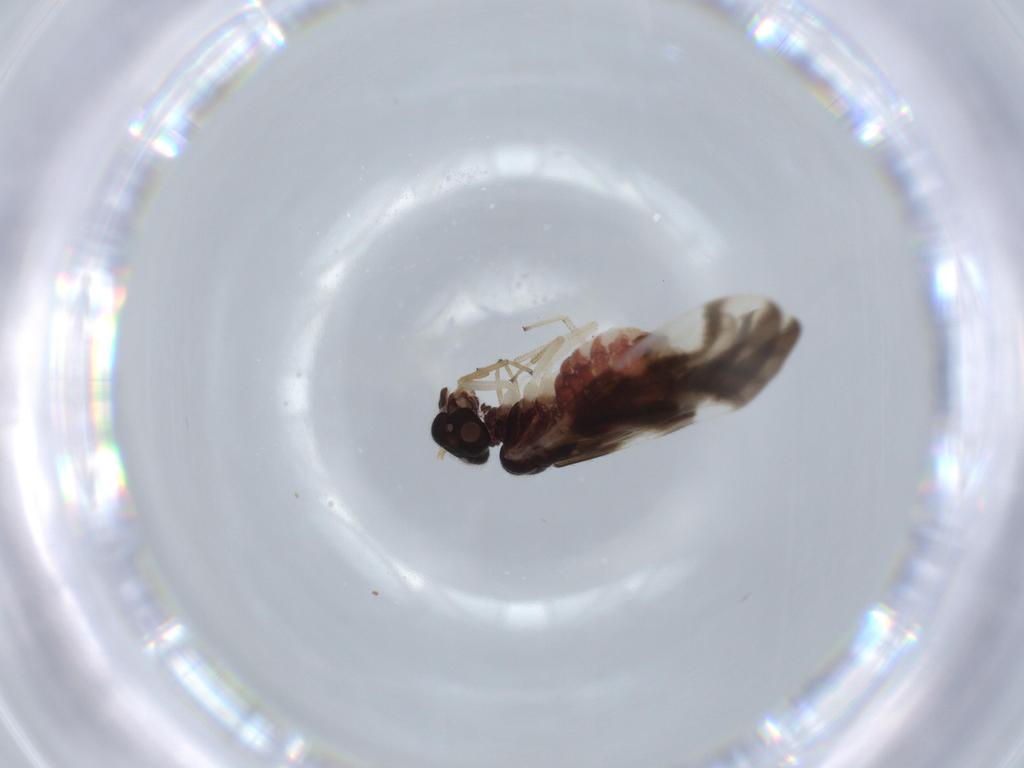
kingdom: Animalia
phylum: Arthropoda
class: Insecta
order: Psocodea
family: Caeciliusidae
